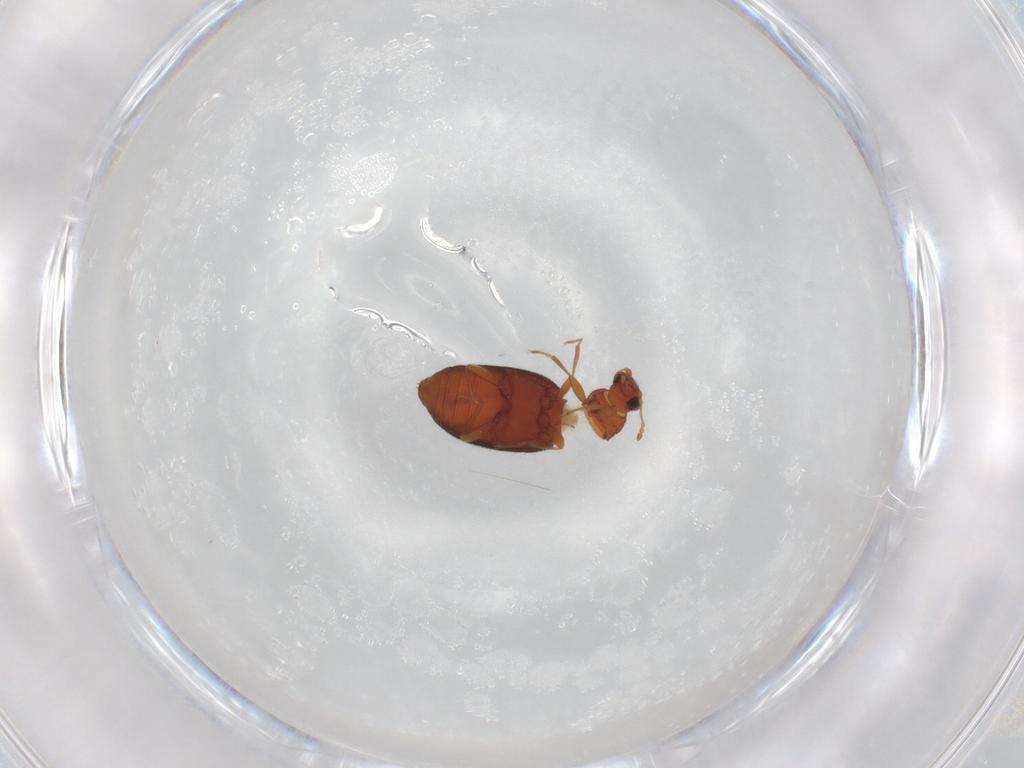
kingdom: Animalia
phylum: Arthropoda
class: Insecta
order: Coleoptera
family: Latridiidae
